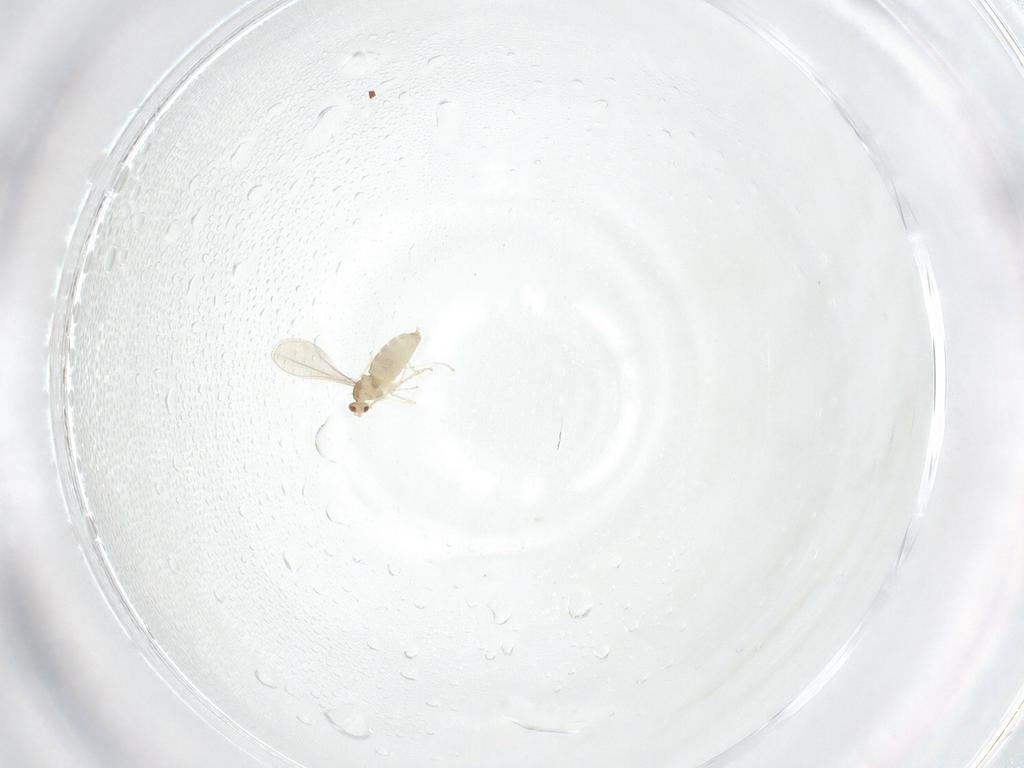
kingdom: Animalia
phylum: Arthropoda
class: Insecta
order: Diptera
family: Cecidomyiidae
